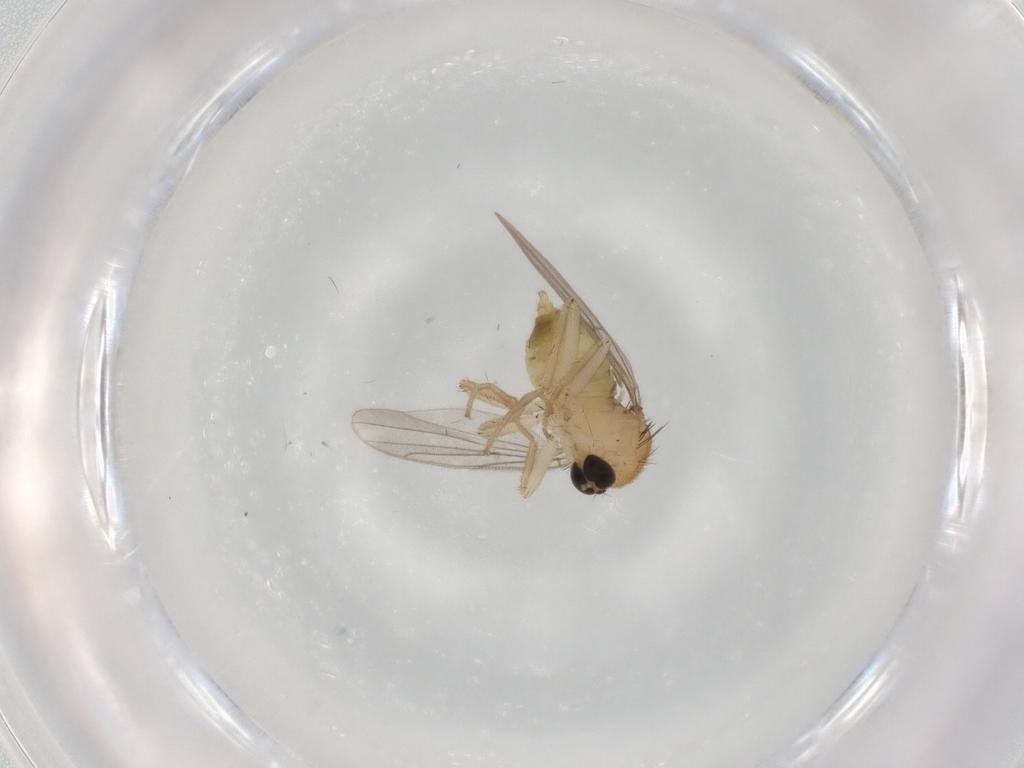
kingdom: Animalia
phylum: Arthropoda
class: Insecta
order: Diptera
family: Hybotidae
